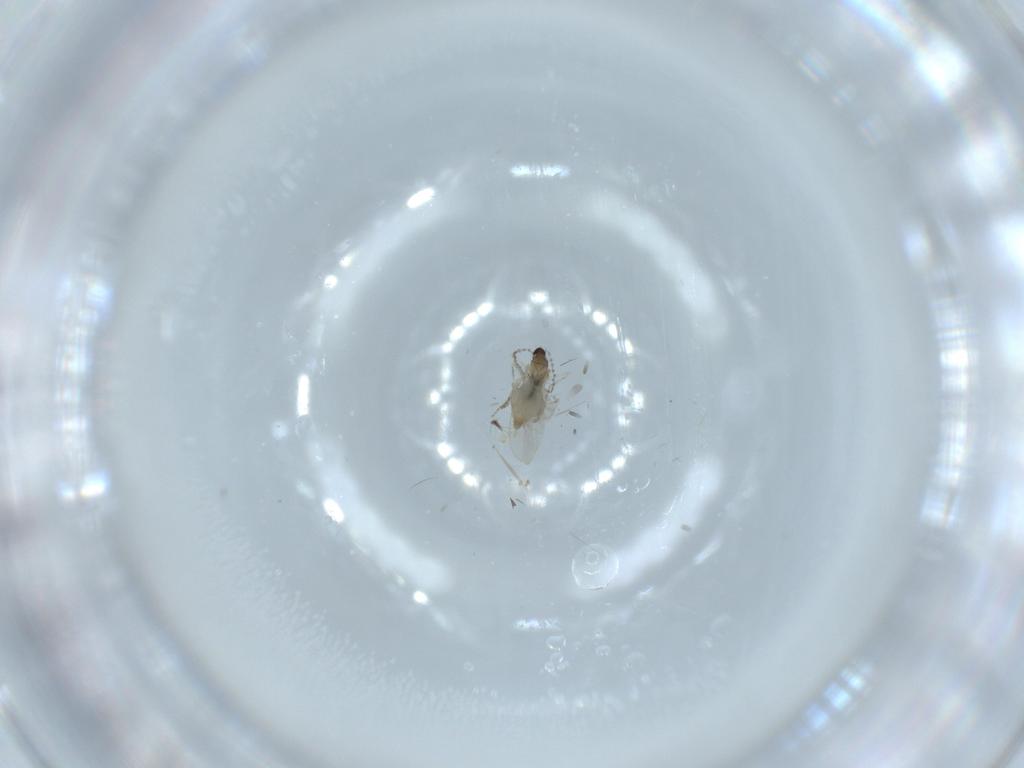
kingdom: Animalia
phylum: Arthropoda
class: Insecta
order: Diptera
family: Cecidomyiidae
